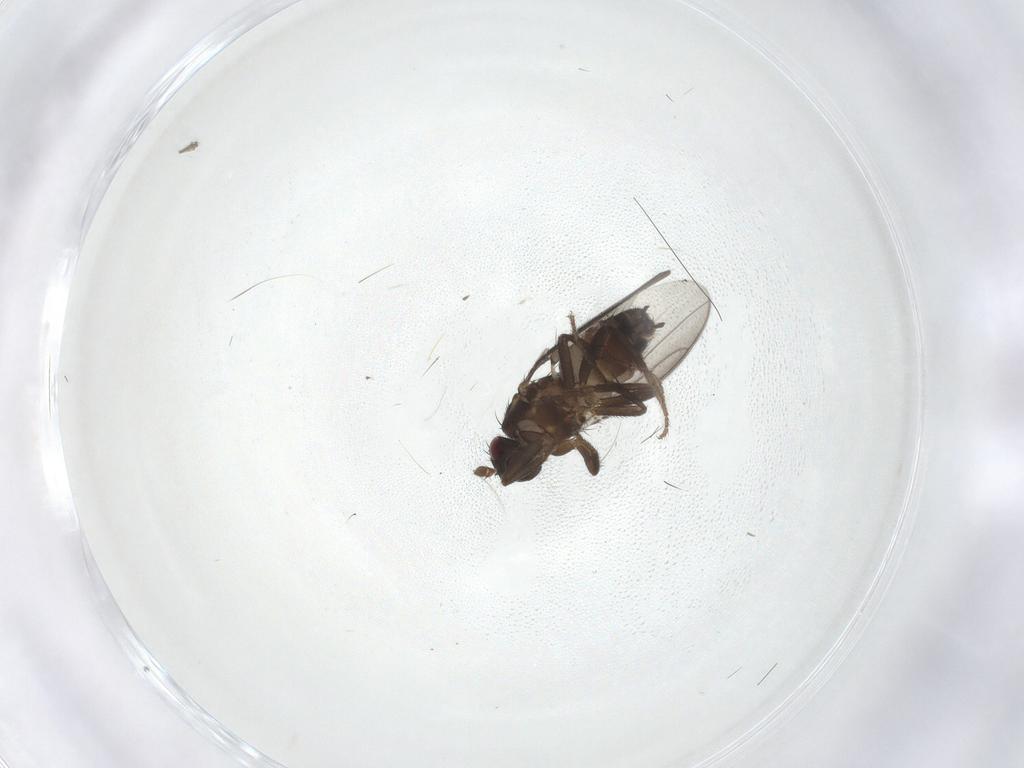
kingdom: Animalia
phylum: Arthropoda
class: Insecta
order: Diptera
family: Sphaeroceridae
